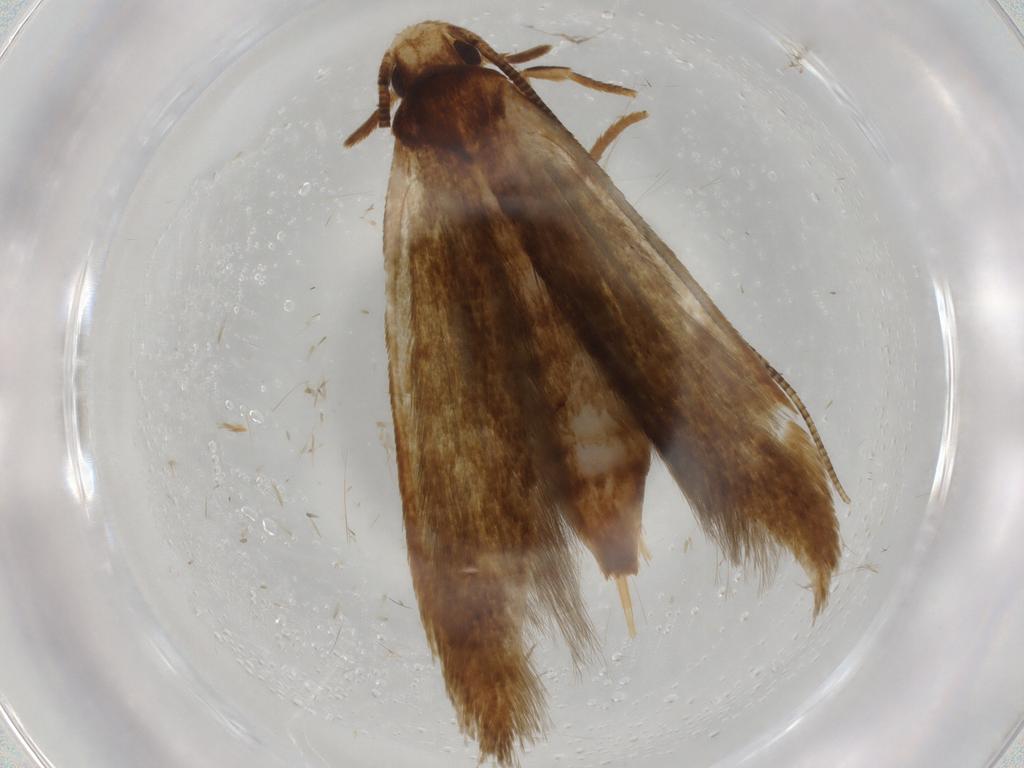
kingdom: Animalia
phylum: Arthropoda
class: Insecta
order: Lepidoptera
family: Tineidae
